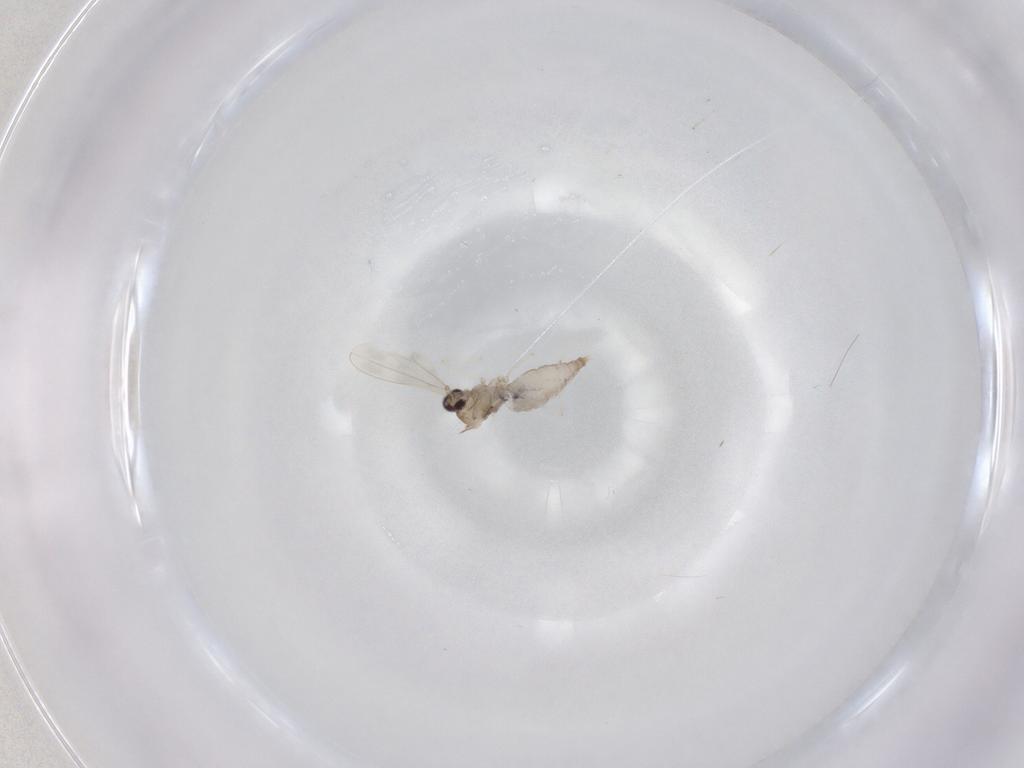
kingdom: Animalia
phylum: Arthropoda
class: Insecta
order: Diptera
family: Cecidomyiidae
